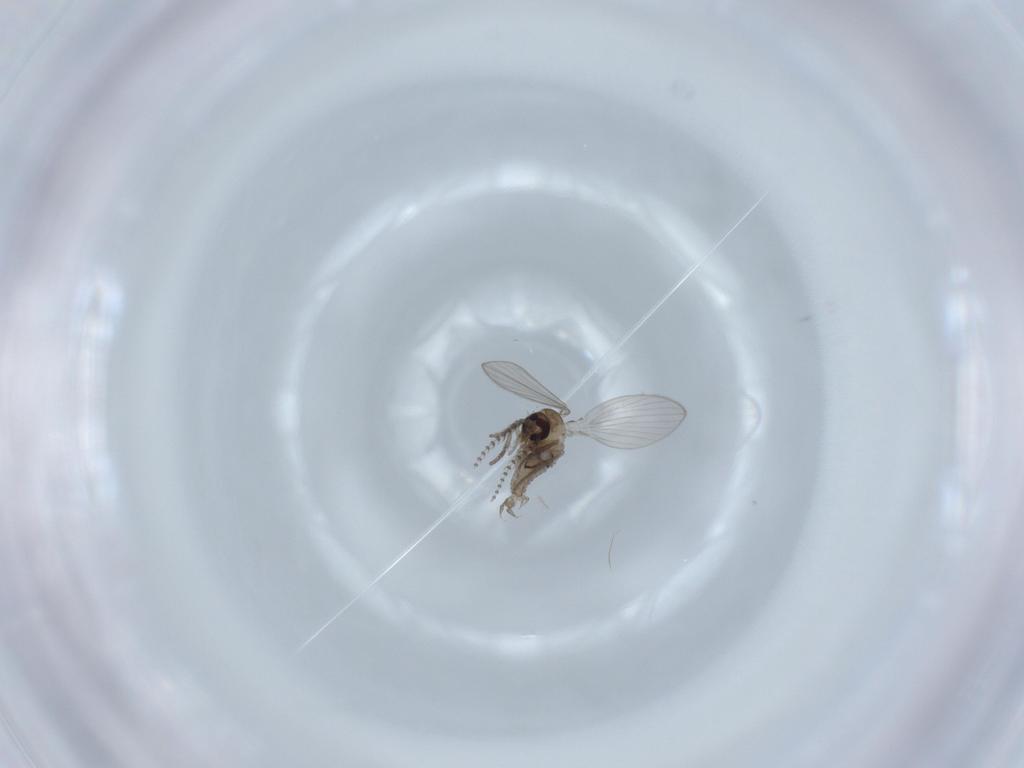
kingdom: Animalia
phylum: Arthropoda
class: Insecta
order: Diptera
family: Psychodidae
